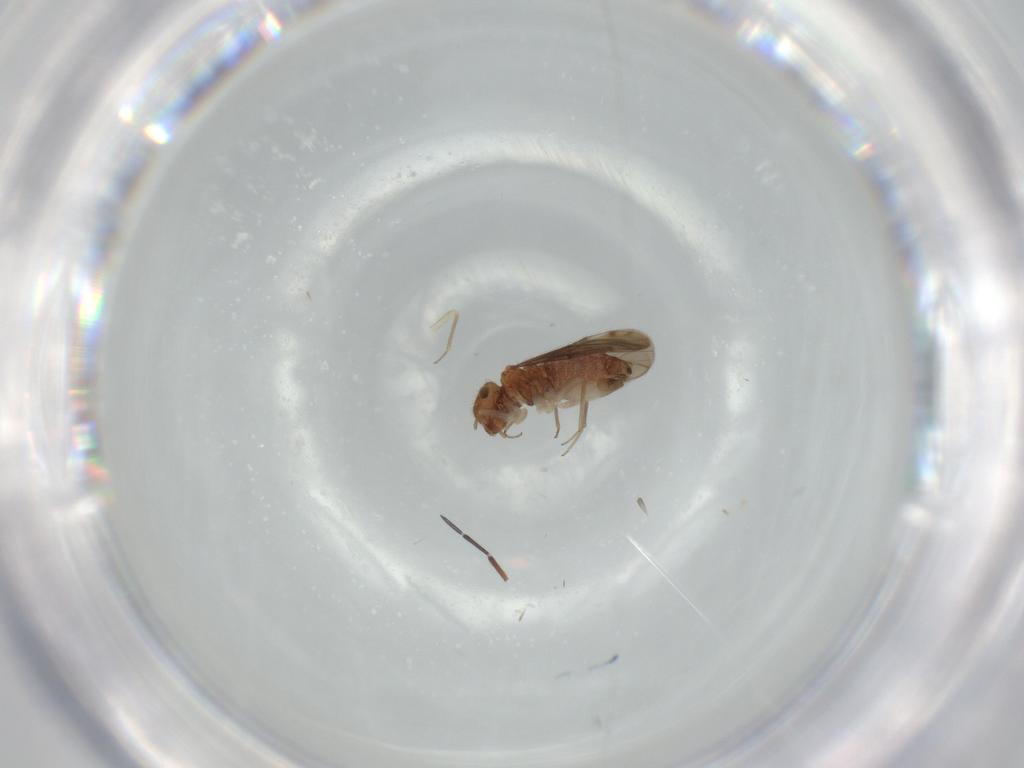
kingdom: Animalia
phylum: Arthropoda
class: Insecta
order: Psocodea
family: Ectopsocidae
